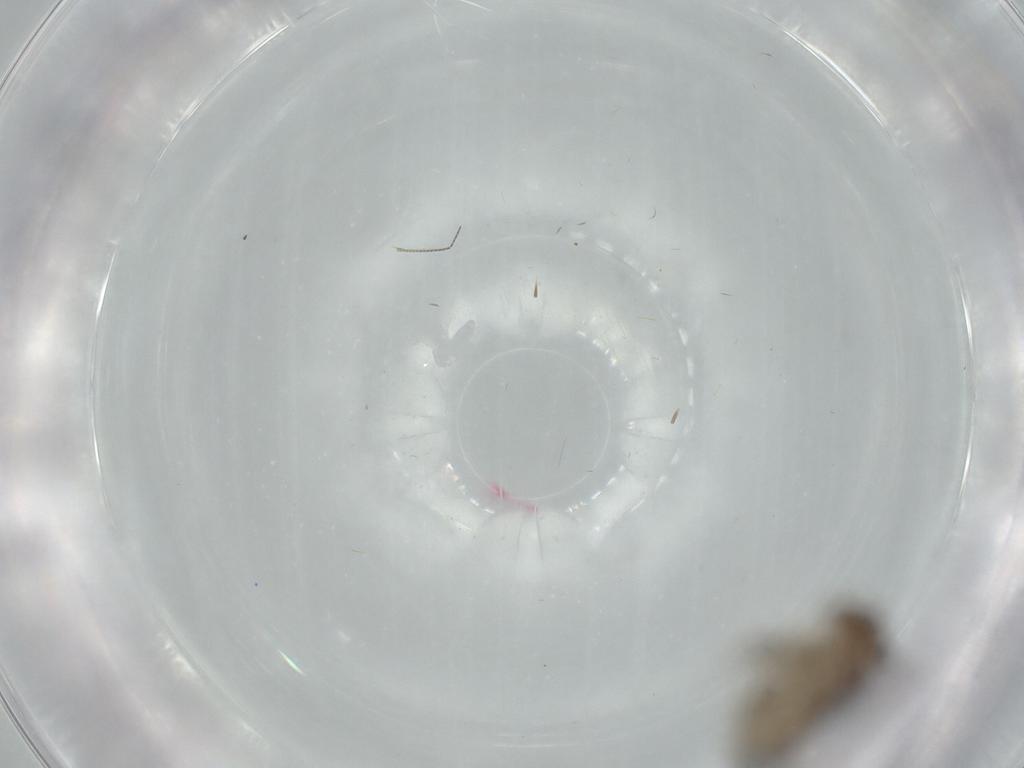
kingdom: Animalia
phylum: Arthropoda
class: Insecta
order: Psocodea
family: Lepidopsocidae
